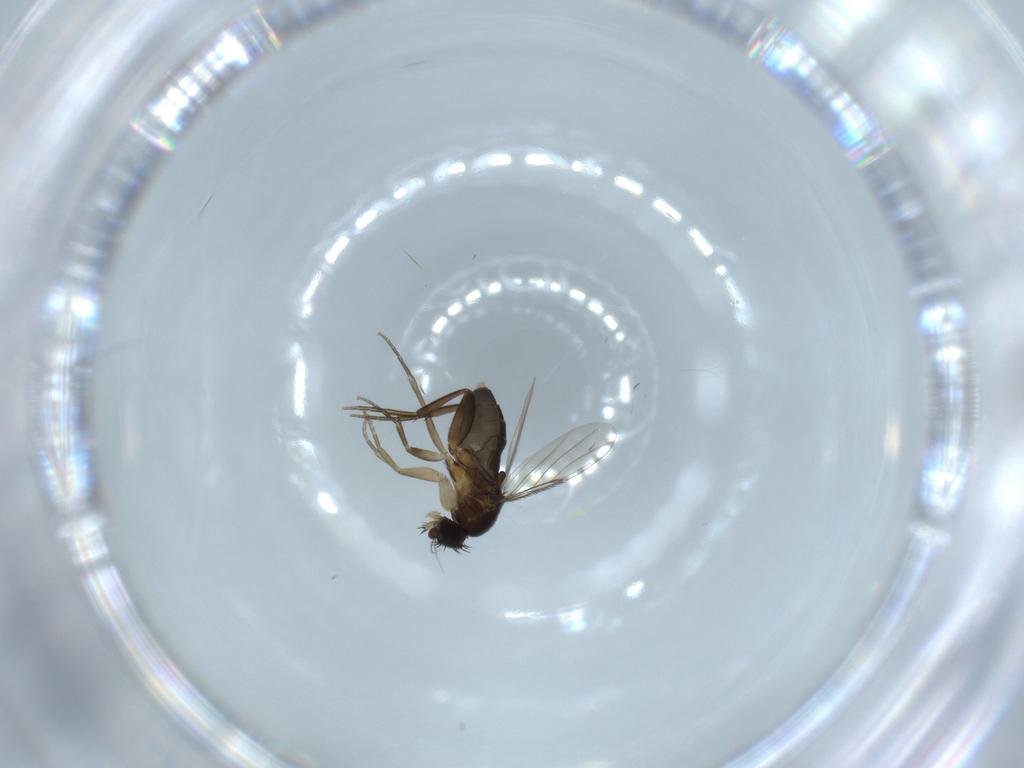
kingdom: Animalia
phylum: Arthropoda
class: Insecta
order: Diptera
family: Phoridae
